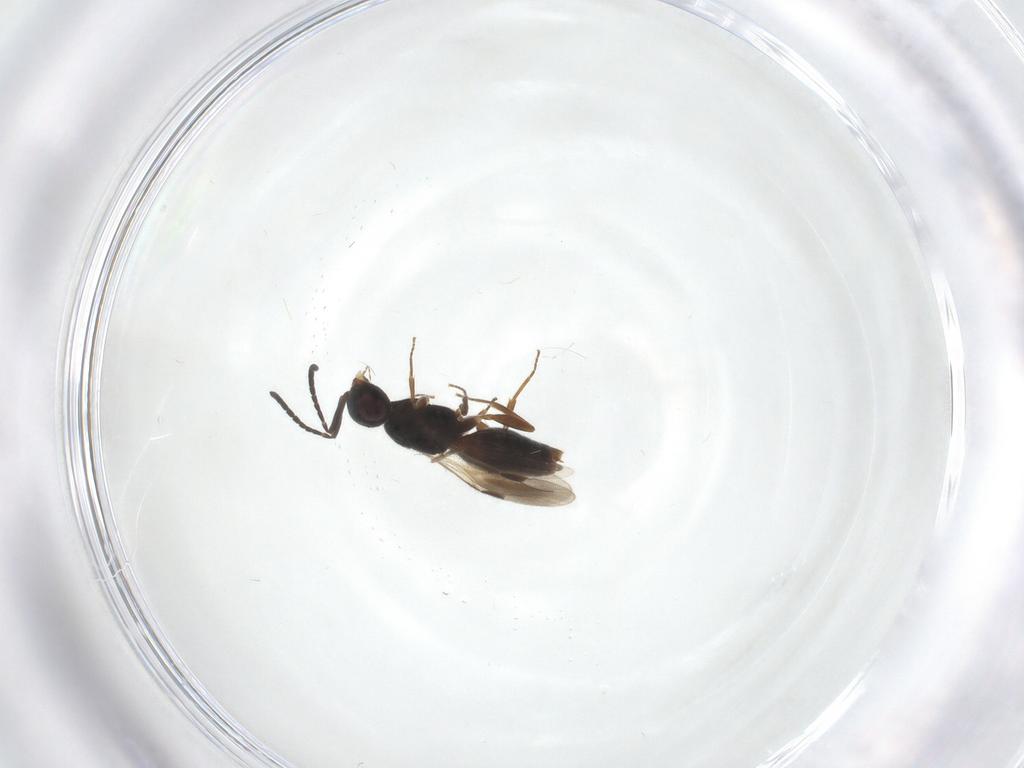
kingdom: Animalia
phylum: Arthropoda
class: Insecta
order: Hymenoptera
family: Megaspilidae
